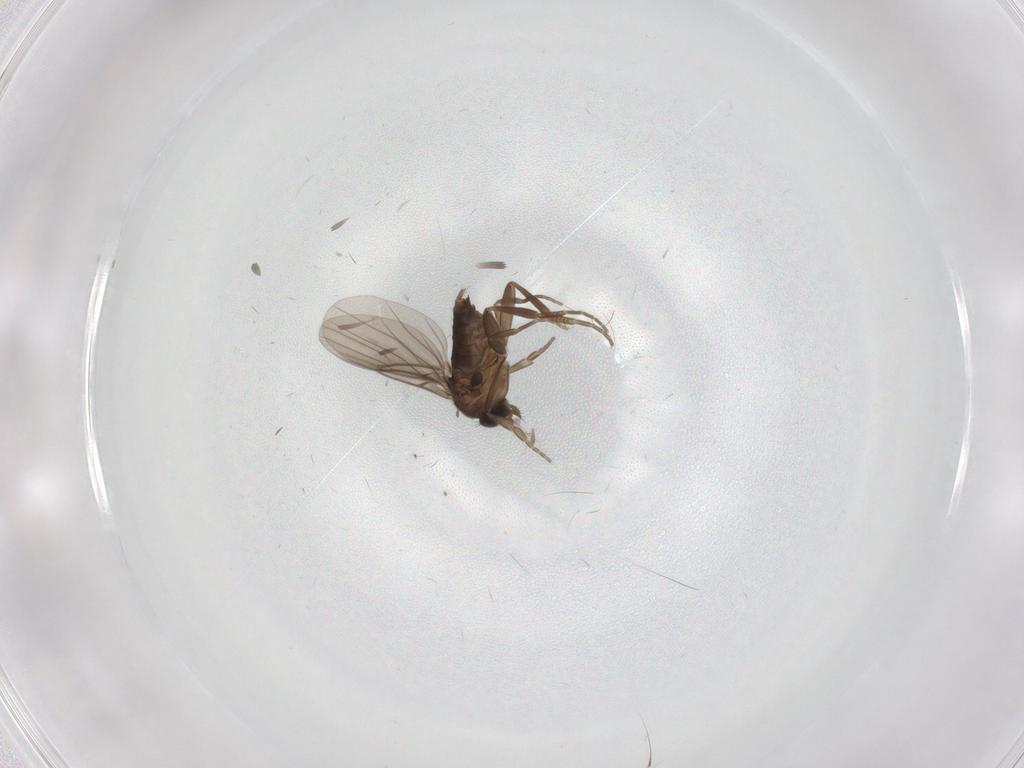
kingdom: Animalia
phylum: Arthropoda
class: Insecta
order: Diptera
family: Ceratopogonidae
